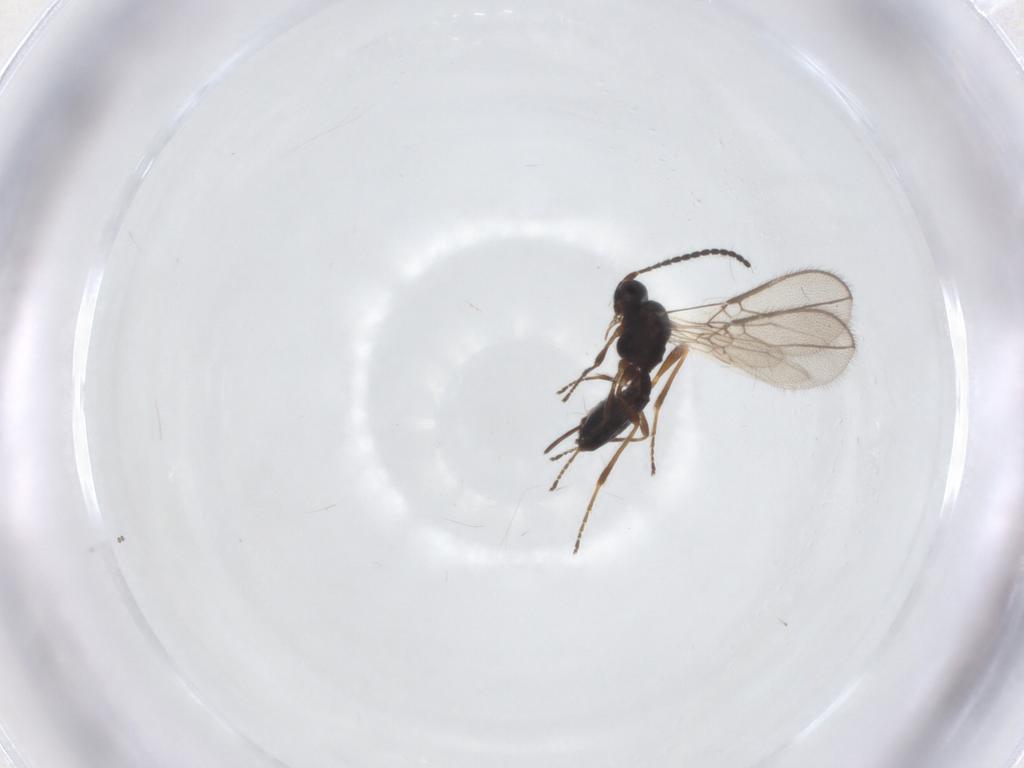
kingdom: Animalia
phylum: Arthropoda
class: Insecta
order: Hymenoptera
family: Braconidae
